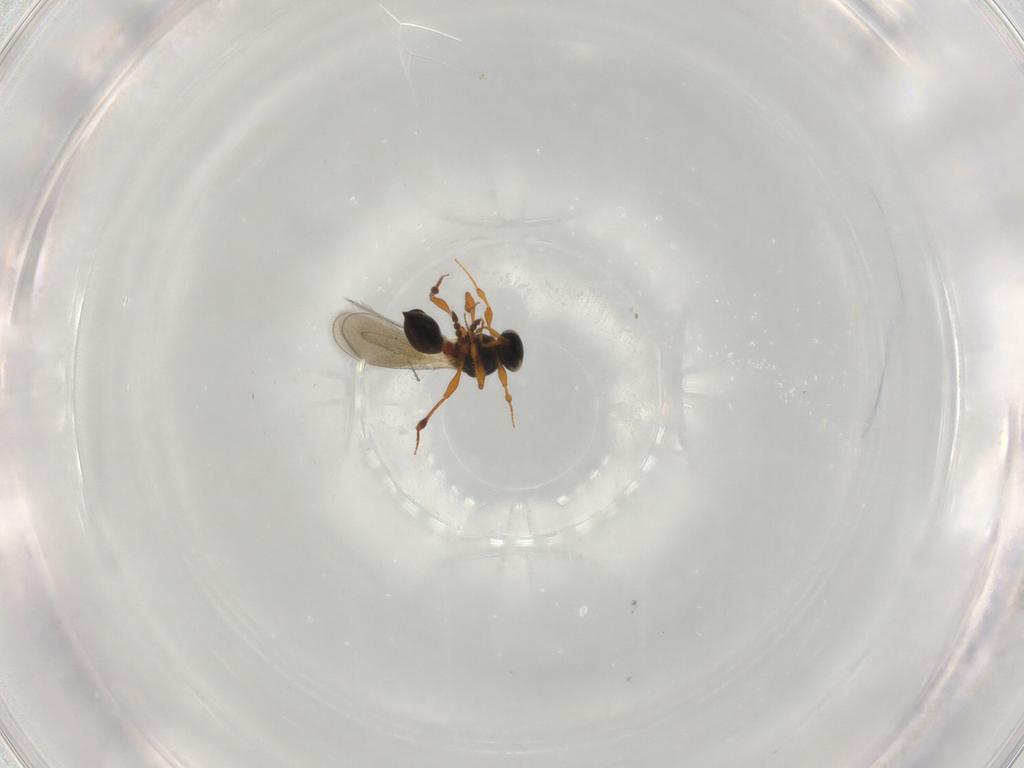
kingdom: Animalia
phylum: Arthropoda
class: Insecta
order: Hymenoptera
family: Platygastridae
